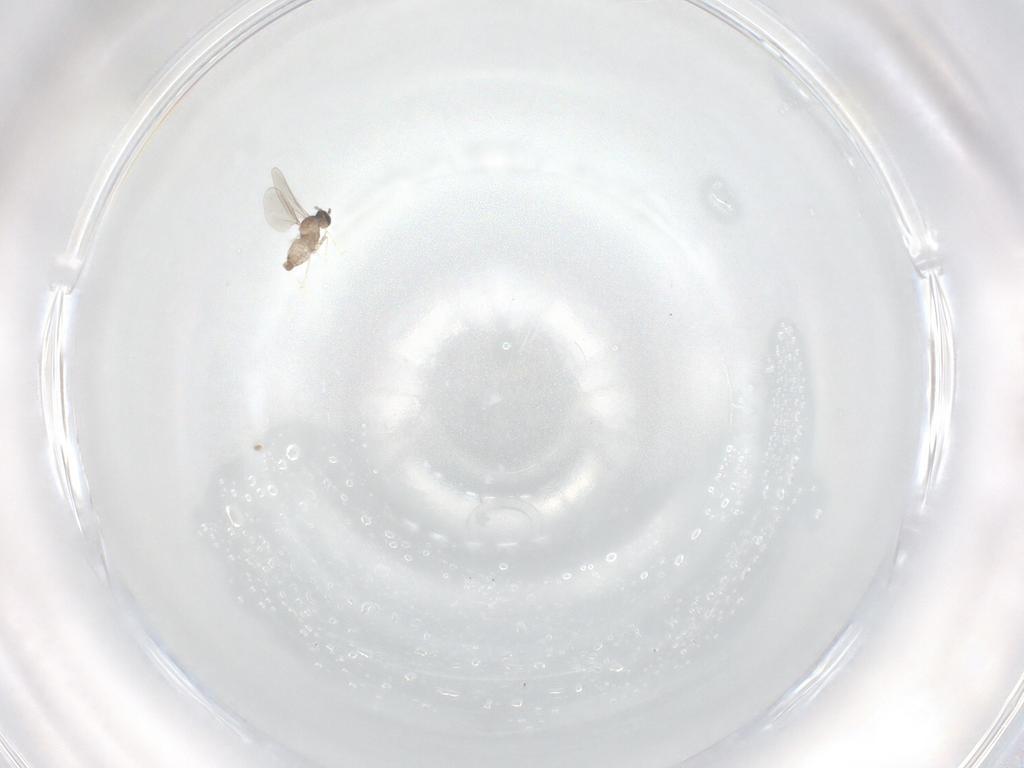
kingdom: Animalia
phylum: Arthropoda
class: Insecta
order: Diptera
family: Cecidomyiidae
